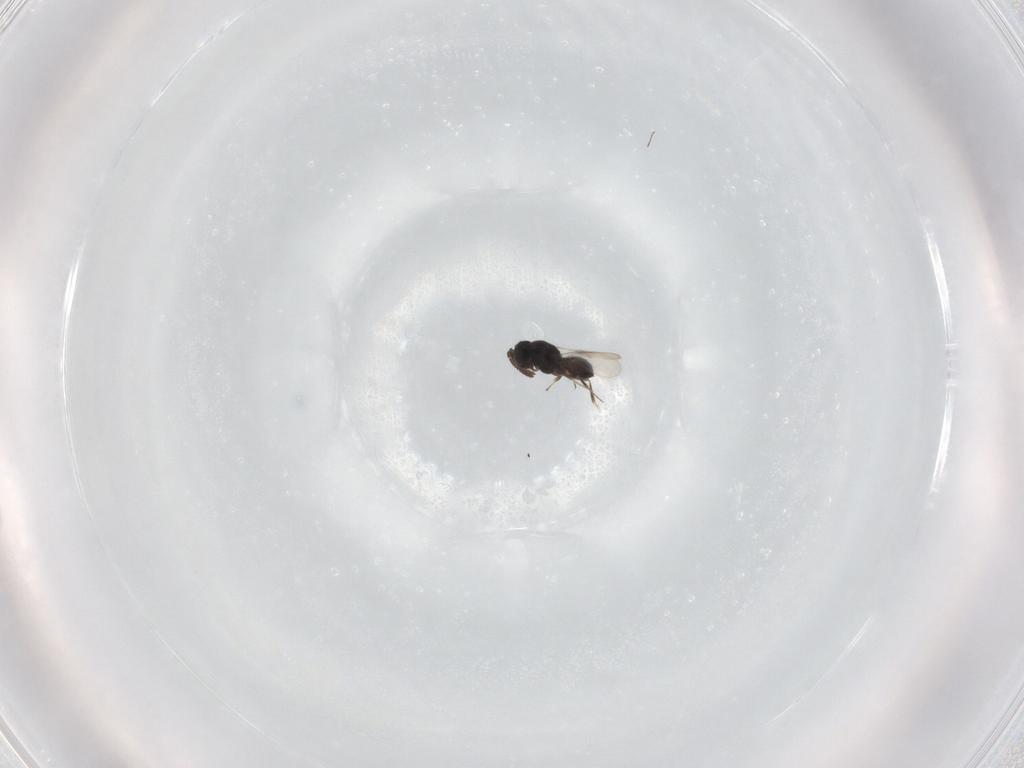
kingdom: Animalia
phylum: Arthropoda
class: Insecta
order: Hymenoptera
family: Scelionidae
